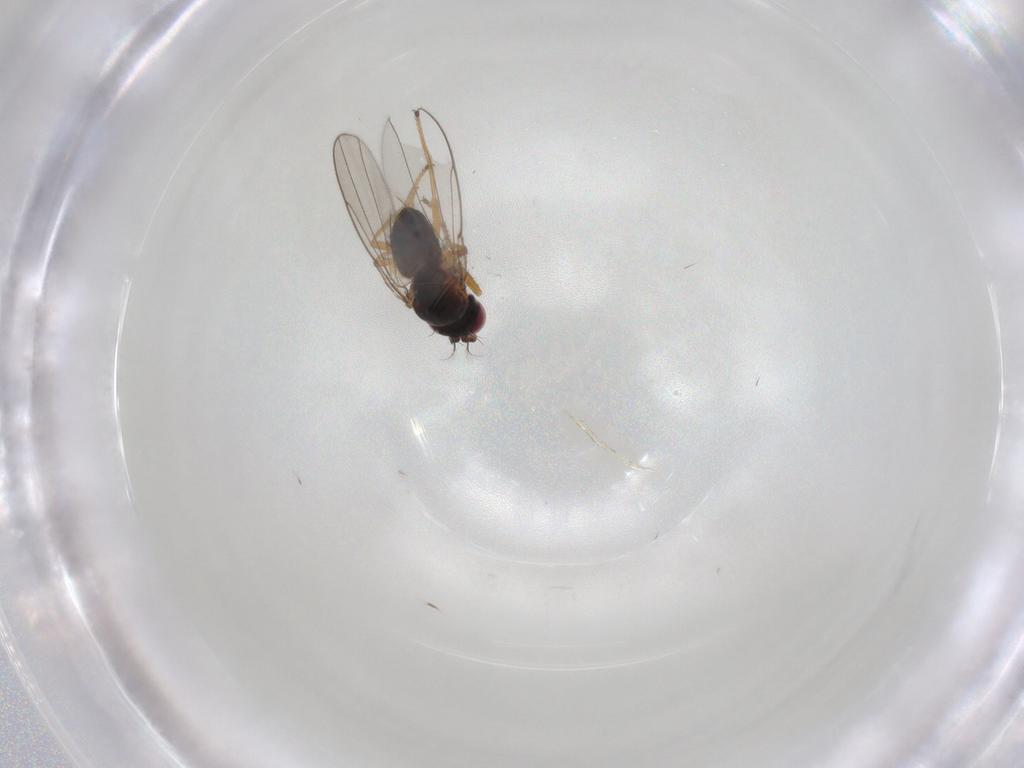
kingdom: Animalia
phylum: Arthropoda
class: Insecta
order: Diptera
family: Ephydridae
